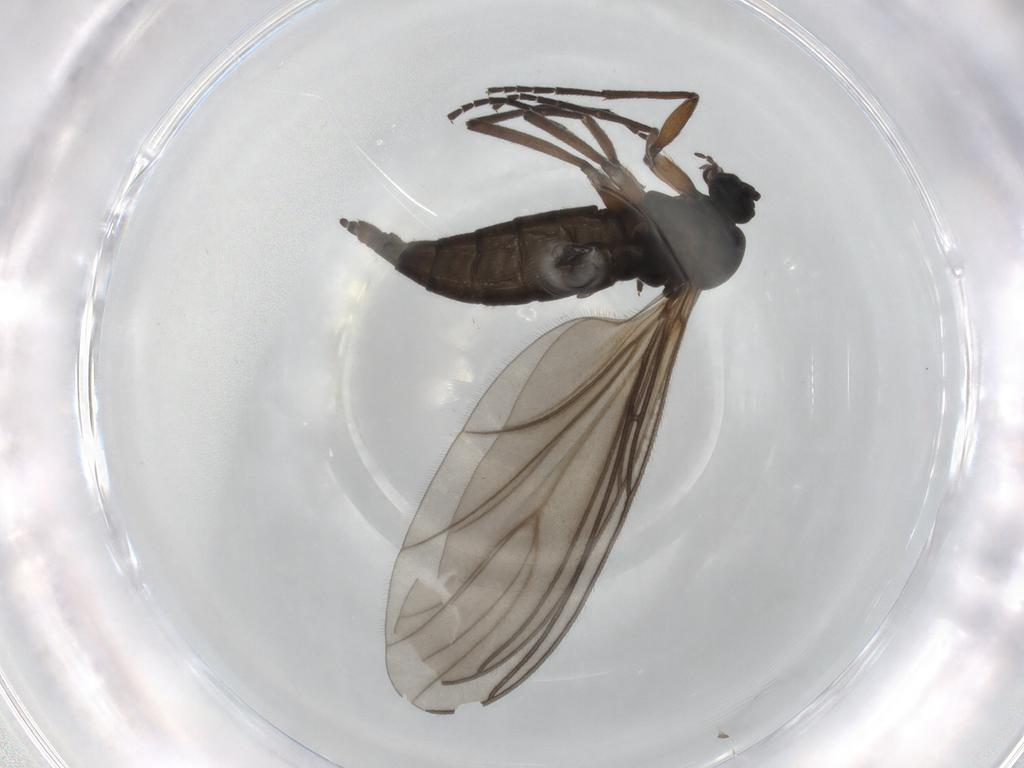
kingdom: Animalia
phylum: Arthropoda
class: Insecta
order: Diptera
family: Sciaridae
